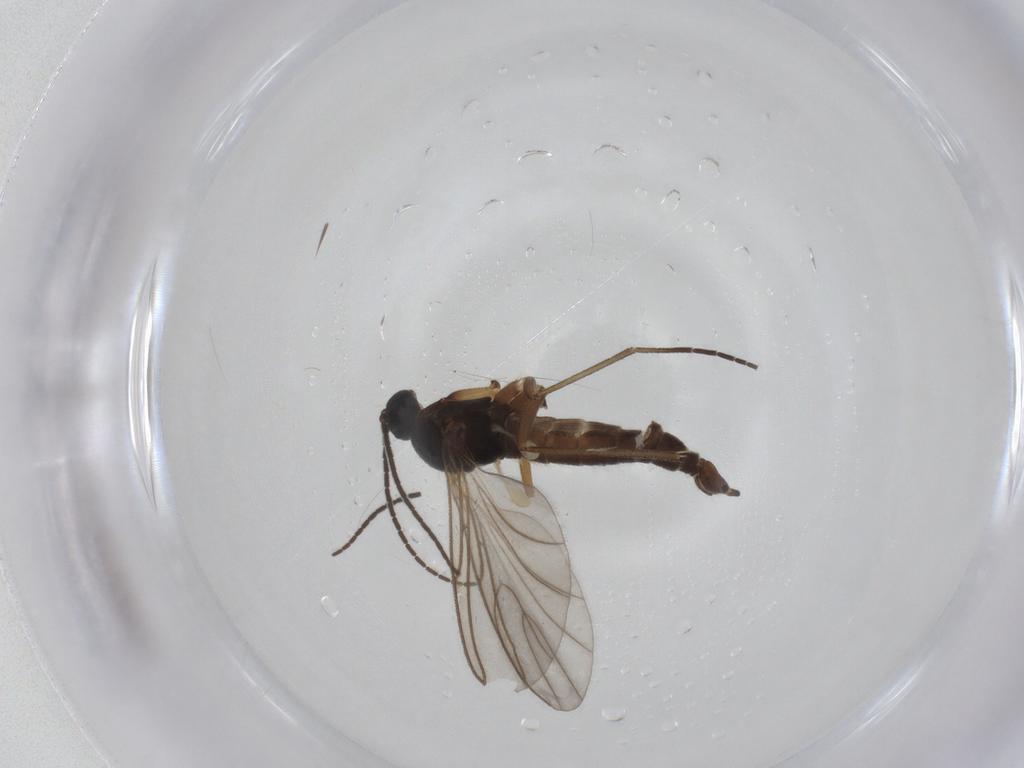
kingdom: Animalia
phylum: Arthropoda
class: Insecta
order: Diptera
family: Sciaridae
